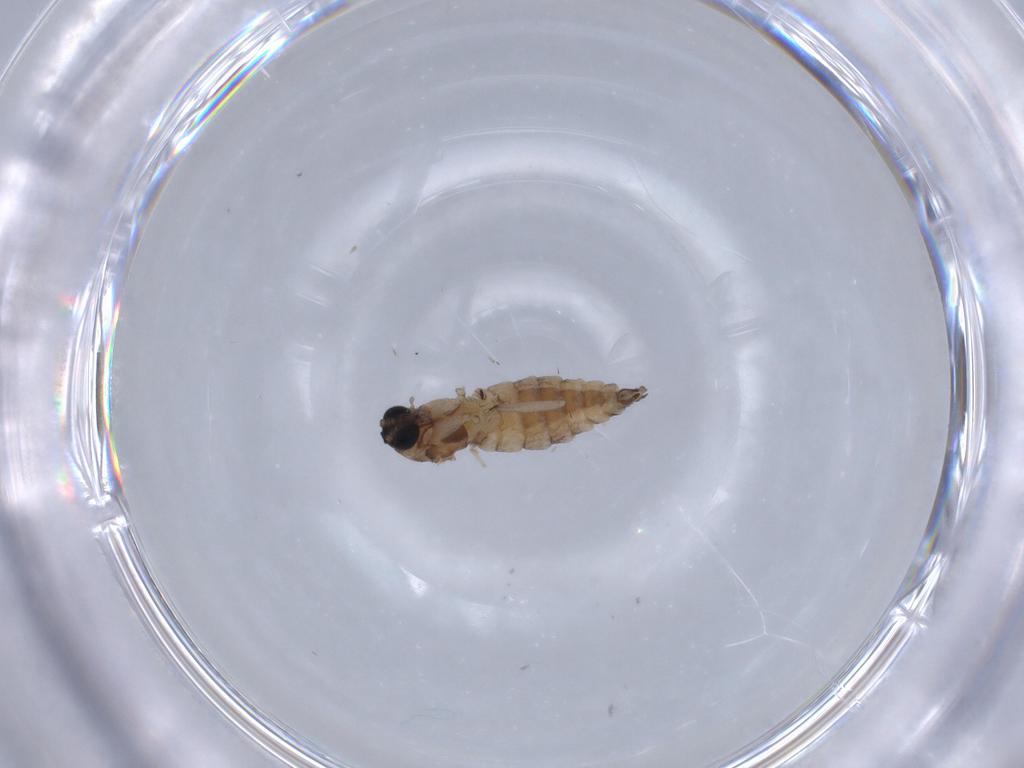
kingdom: Animalia
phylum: Arthropoda
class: Insecta
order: Diptera
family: Sciaridae
